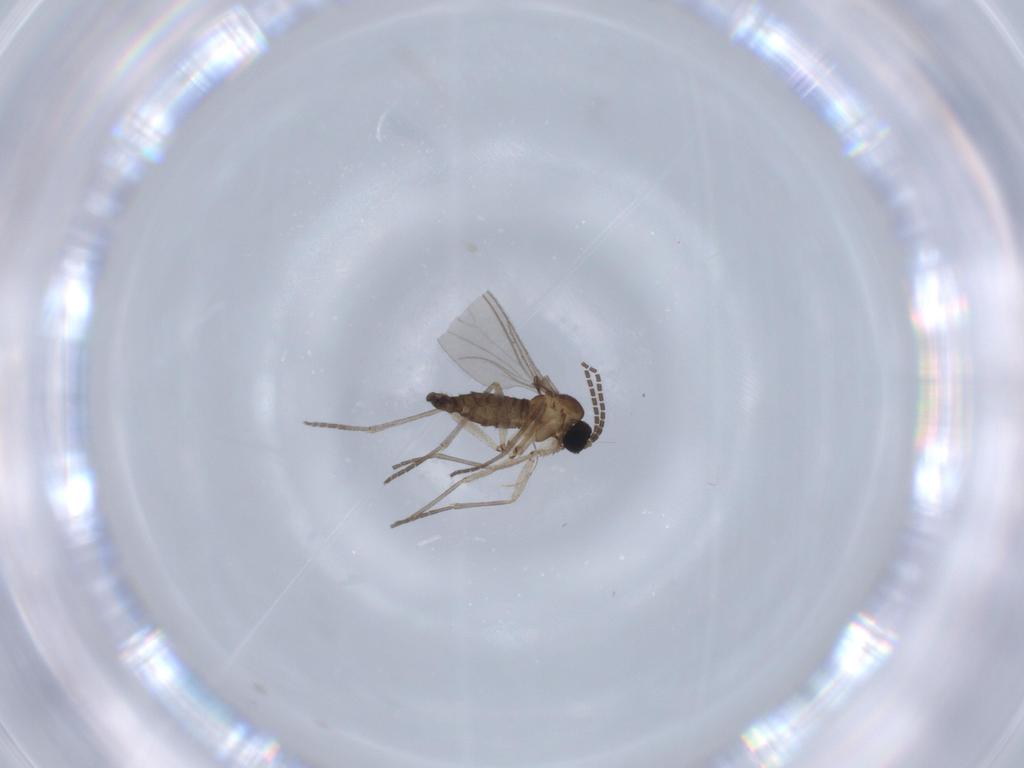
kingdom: Animalia
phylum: Arthropoda
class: Insecta
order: Diptera
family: Sciaridae
